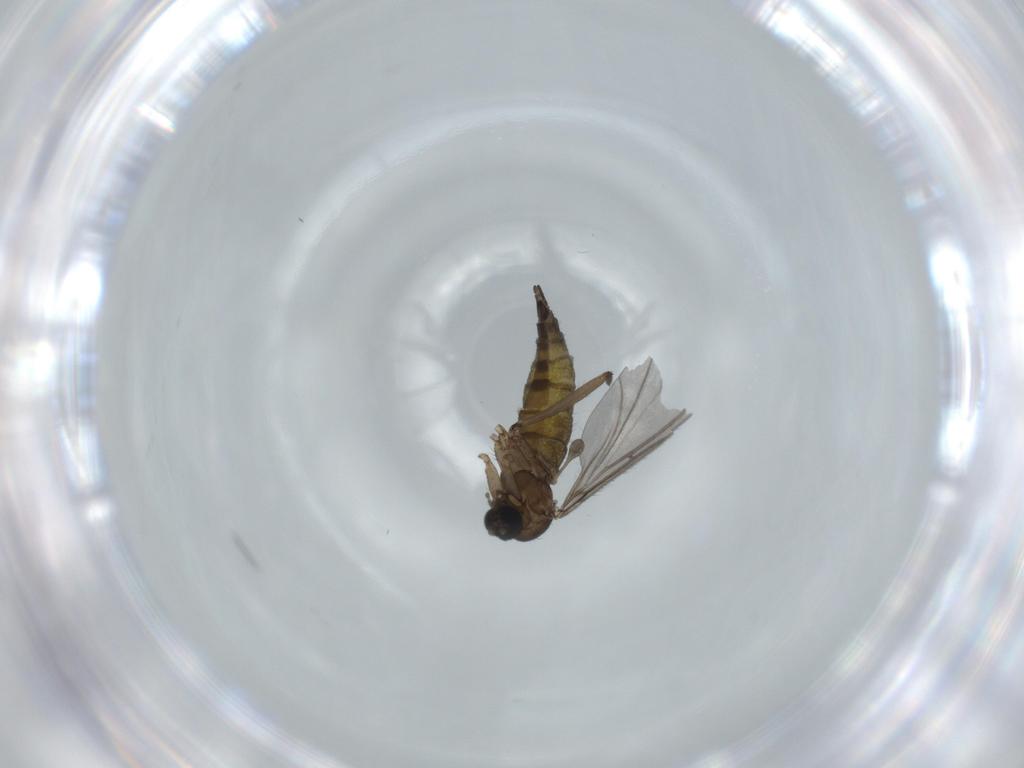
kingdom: Animalia
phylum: Arthropoda
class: Insecta
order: Diptera
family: Sciaridae
